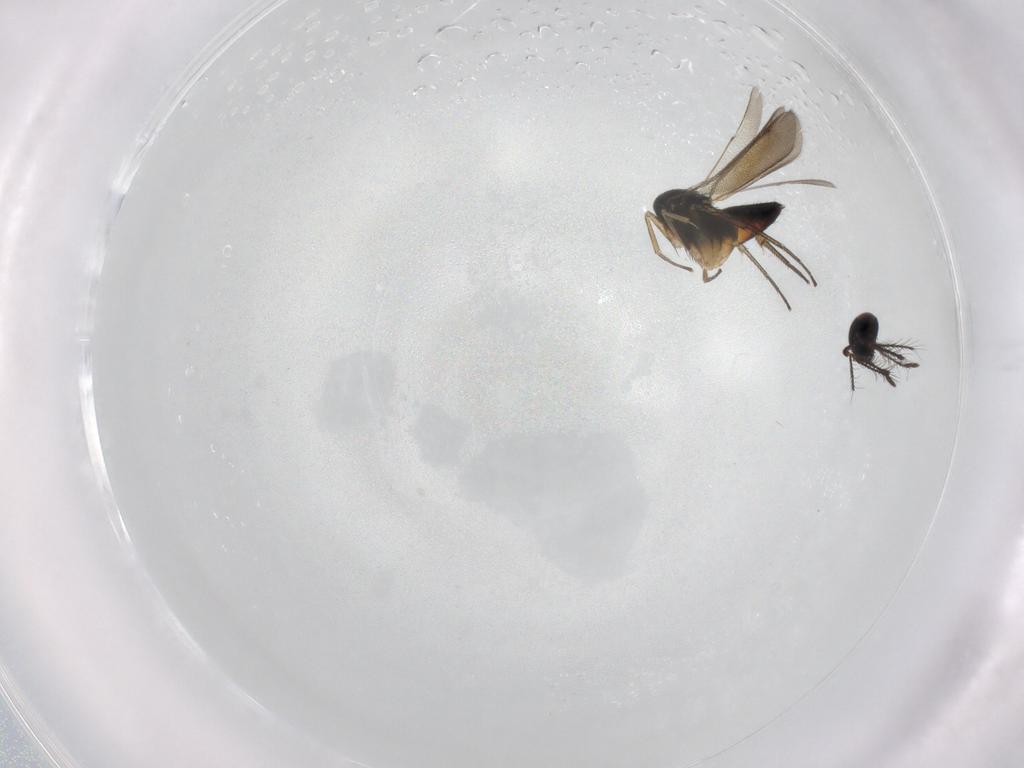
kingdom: Animalia
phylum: Arthropoda
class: Insecta
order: Hymenoptera
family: Eulophidae
